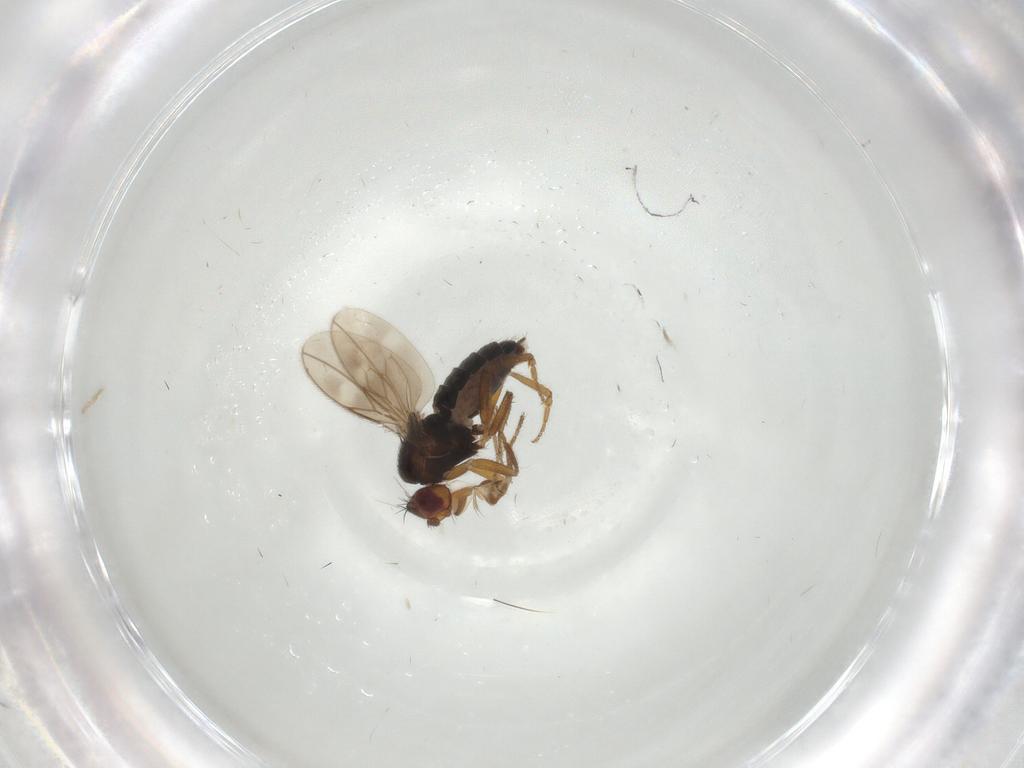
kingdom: Animalia
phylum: Arthropoda
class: Insecta
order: Diptera
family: Sphaeroceridae
